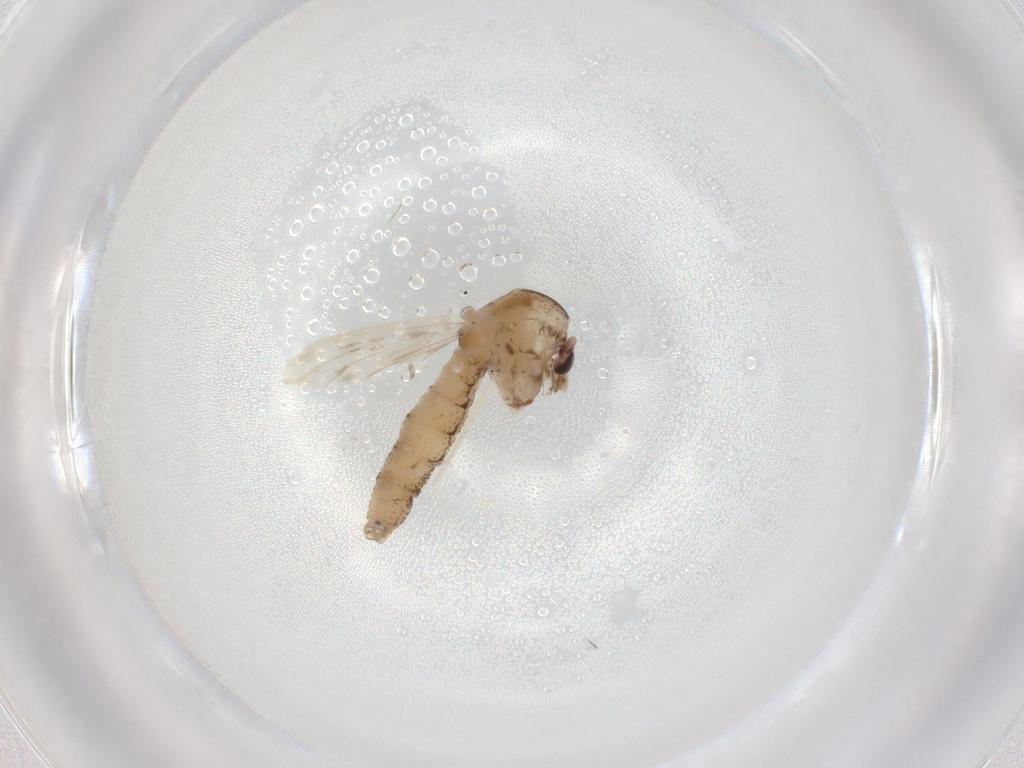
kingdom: Animalia
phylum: Arthropoda
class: Insecta
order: Diptera
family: Chaoboridae
